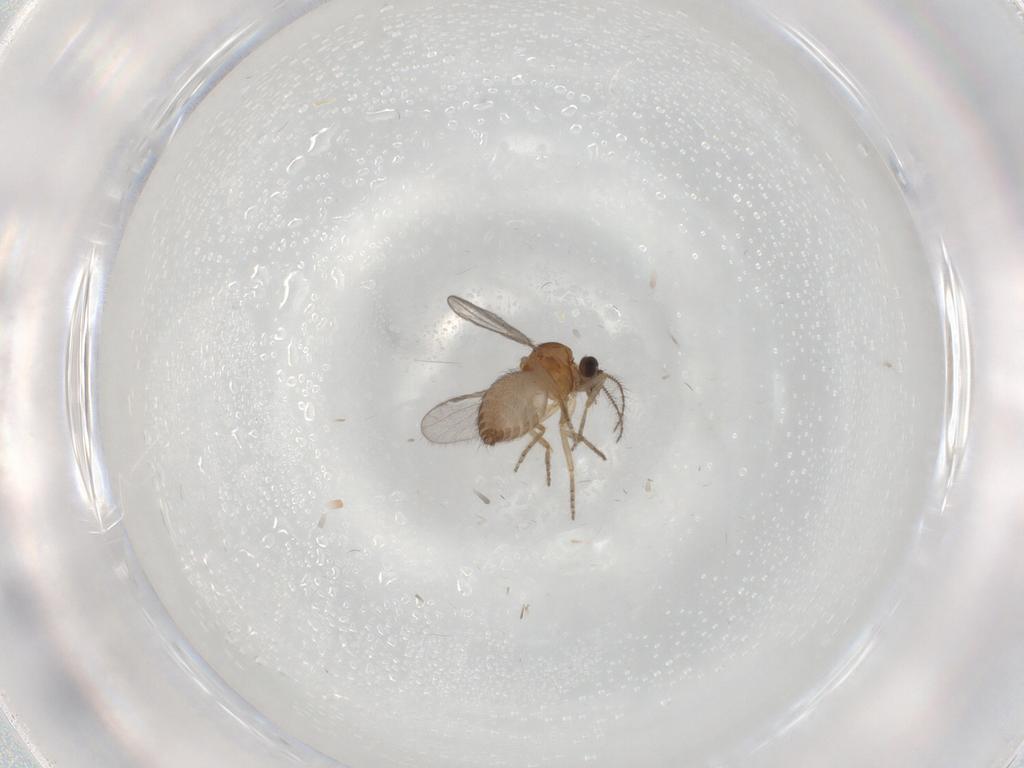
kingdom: Animalia
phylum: Arthropoda
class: Insecta
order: Diptera
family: Ceratopogonidae
